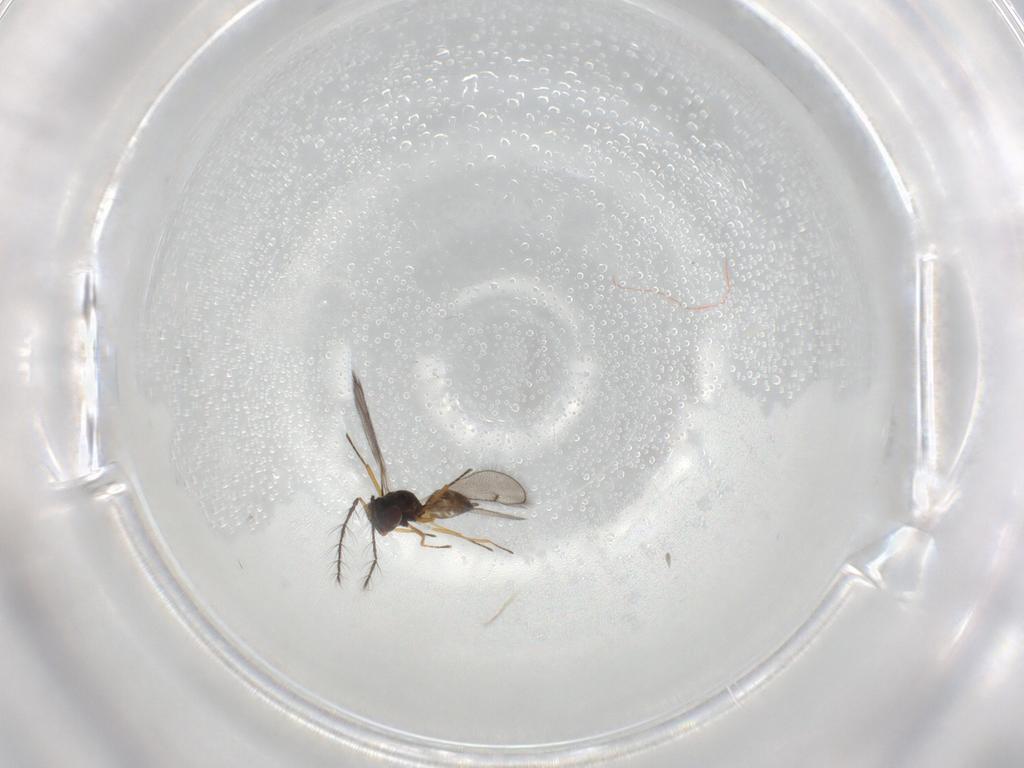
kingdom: Animalia
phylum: Arthropoda
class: Insecta
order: Hymenoptera
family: Eulophidae
